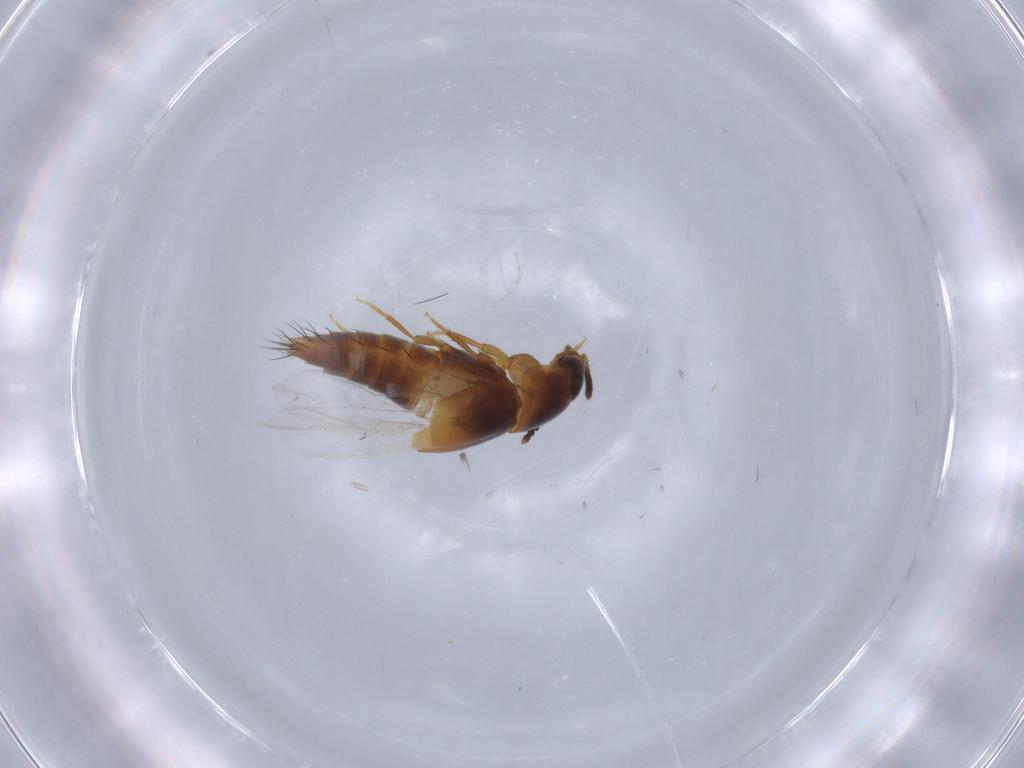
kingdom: Animalia
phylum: Arthropoda
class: Insecta
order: Coleoptera
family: Staphylinidae
